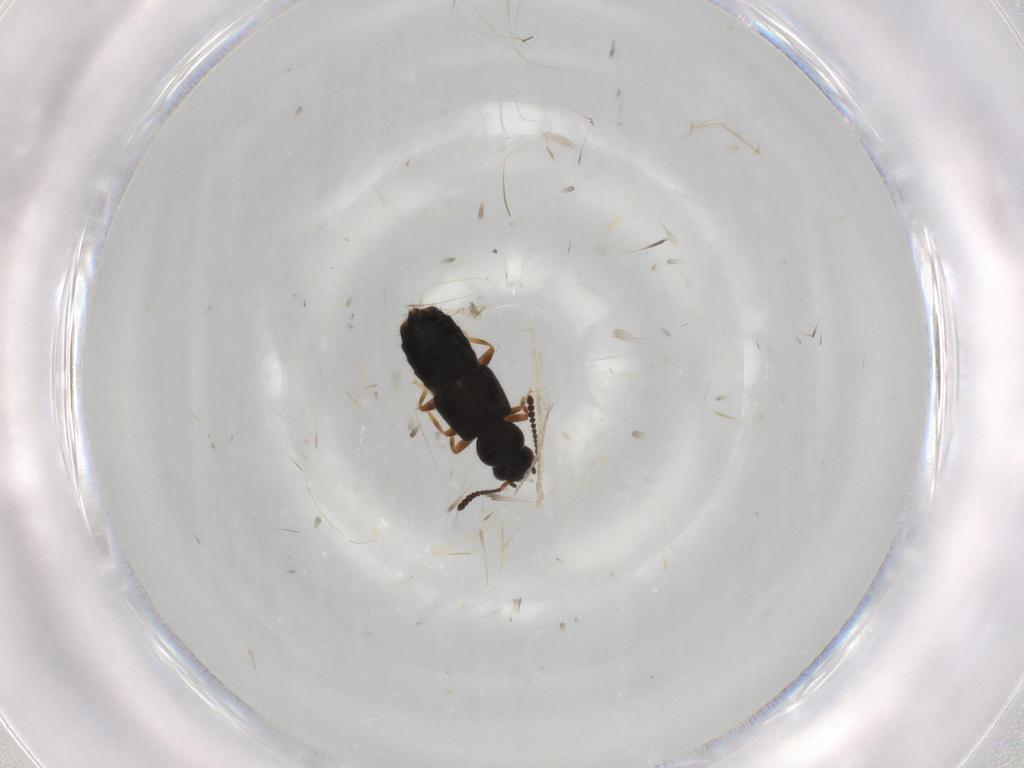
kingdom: Animalia
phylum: Arthropoda
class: Insecta
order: Coleoptera
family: Staphylinidae
